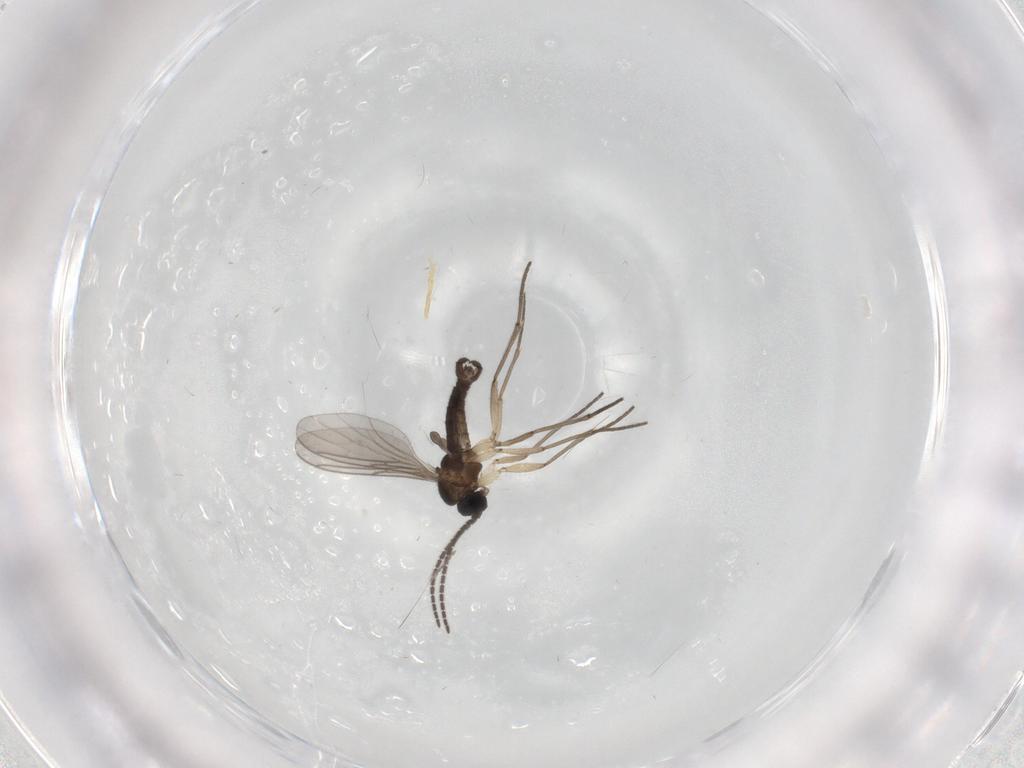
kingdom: Animalia
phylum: Arthropoda
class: Insecta
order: Diptera
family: Sciaridae
